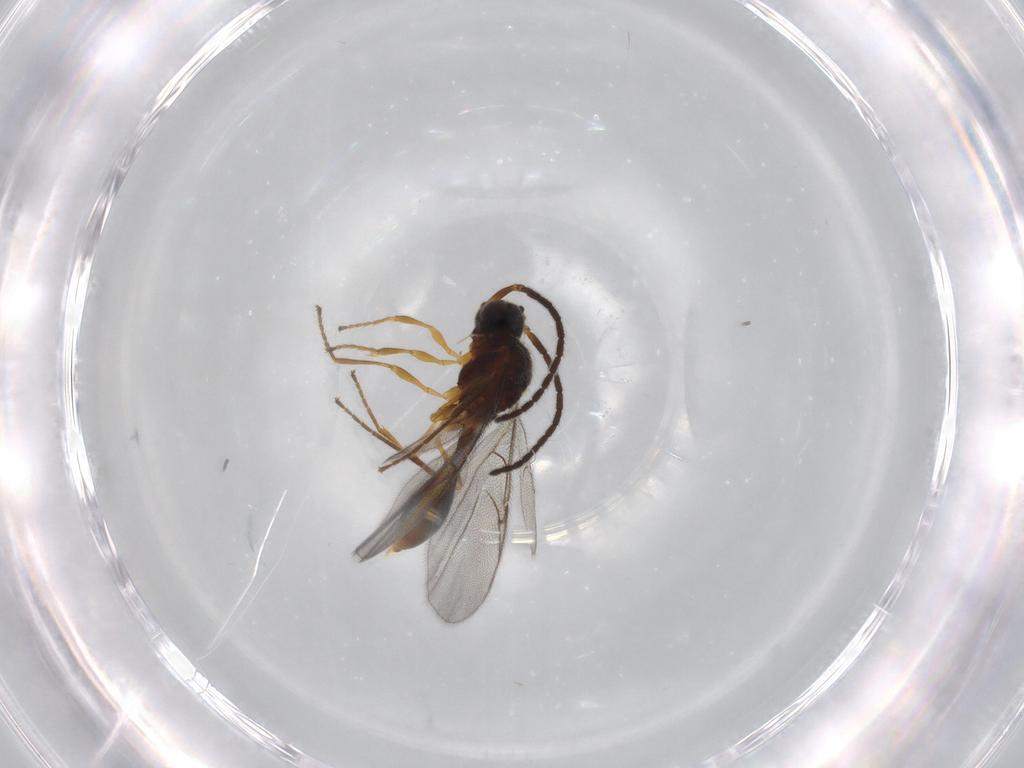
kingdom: Animalia
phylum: Arthropoda
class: Insecta
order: Hymenoptera
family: Diapriidae
